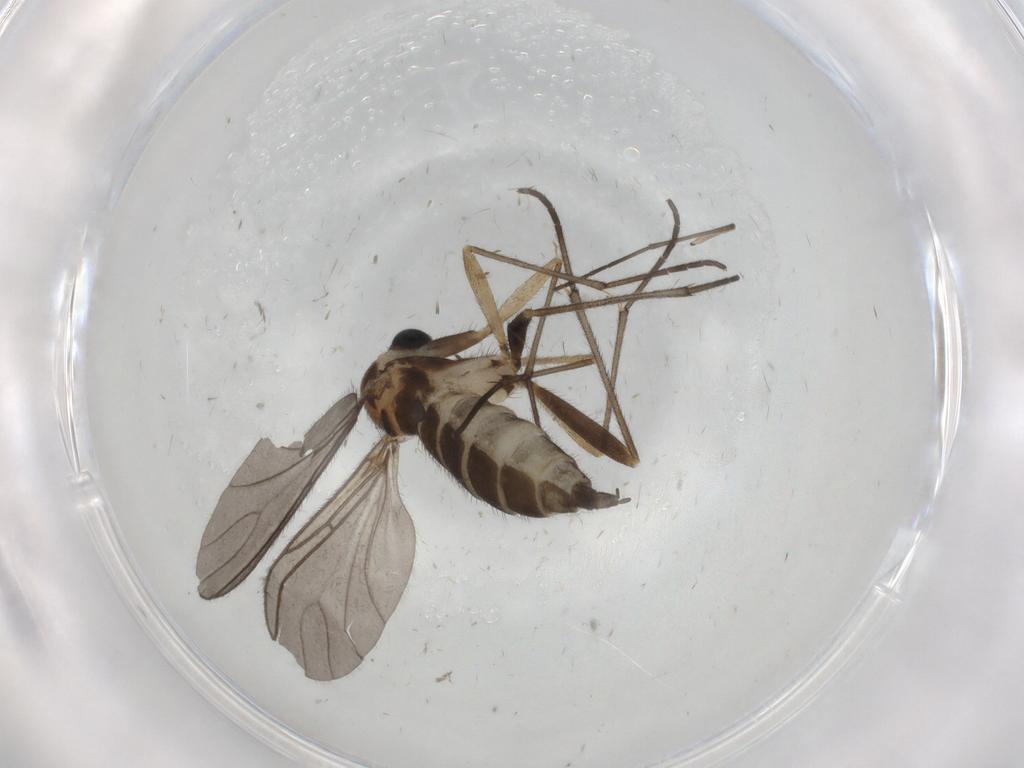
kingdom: Animalia
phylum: Arthropoda
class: Insecta
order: Diptera
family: Sciaridae
